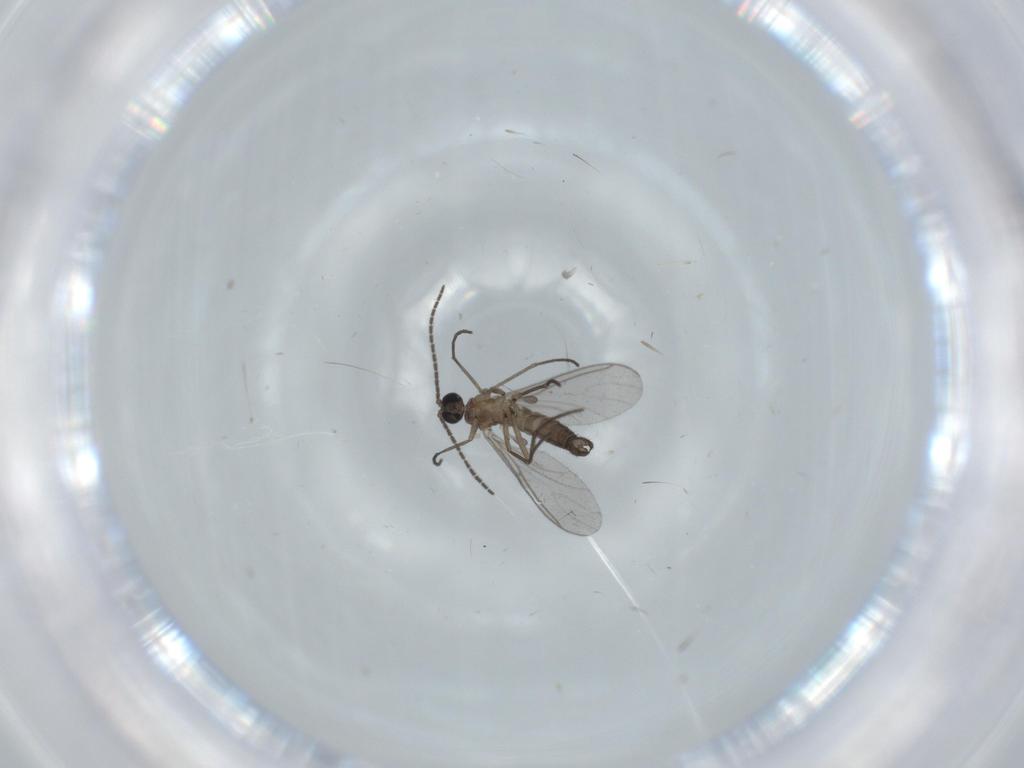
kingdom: Animalia
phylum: Arthropoda
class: Insecta
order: Diptera
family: Sciaridae
